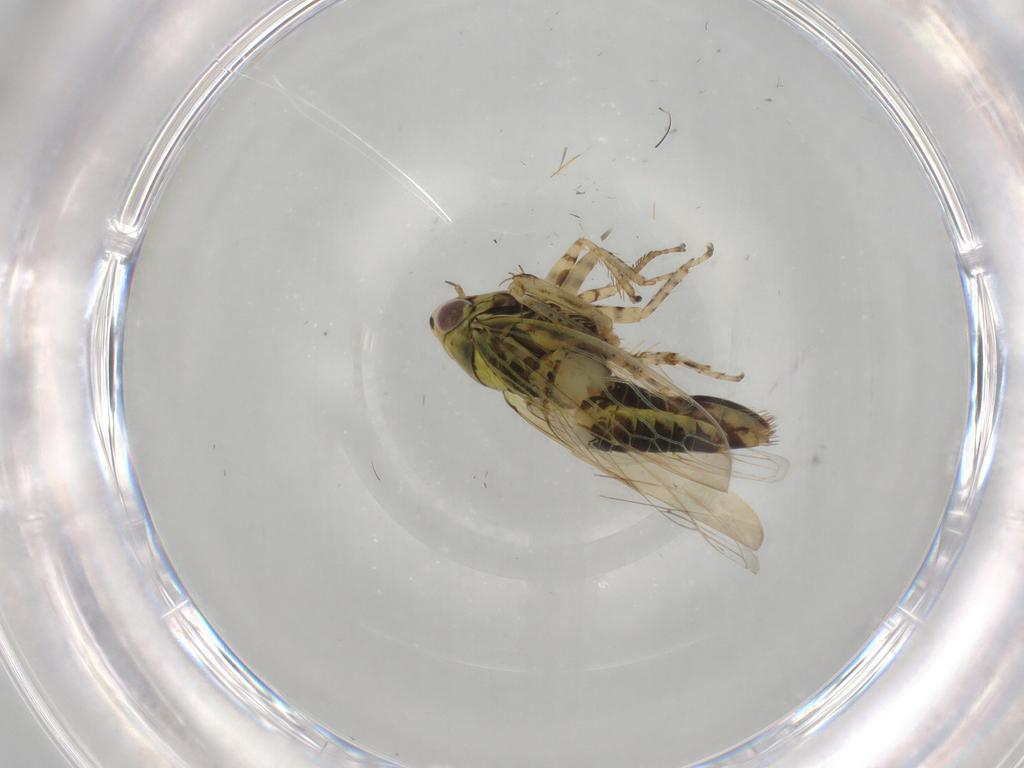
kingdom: Animalia
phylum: Arthropoda
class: Insecta
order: Hemiptera
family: Cicadellidae
